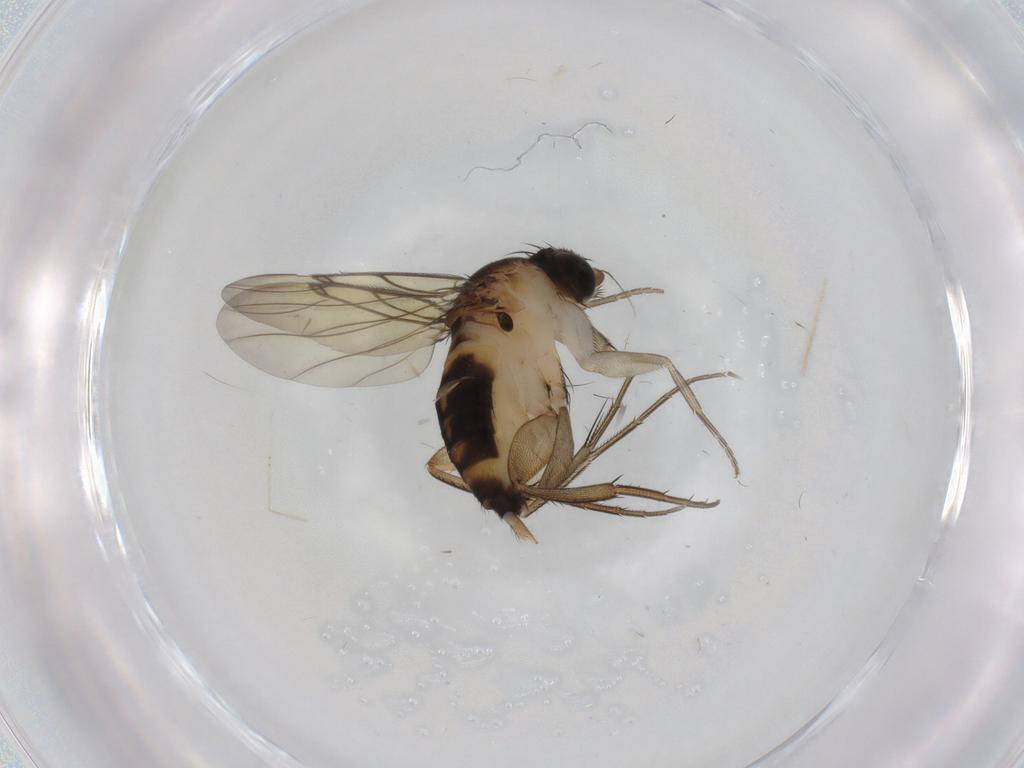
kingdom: Animalia
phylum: Arthropoda
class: Insecta
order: Diptera
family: Phoridae
